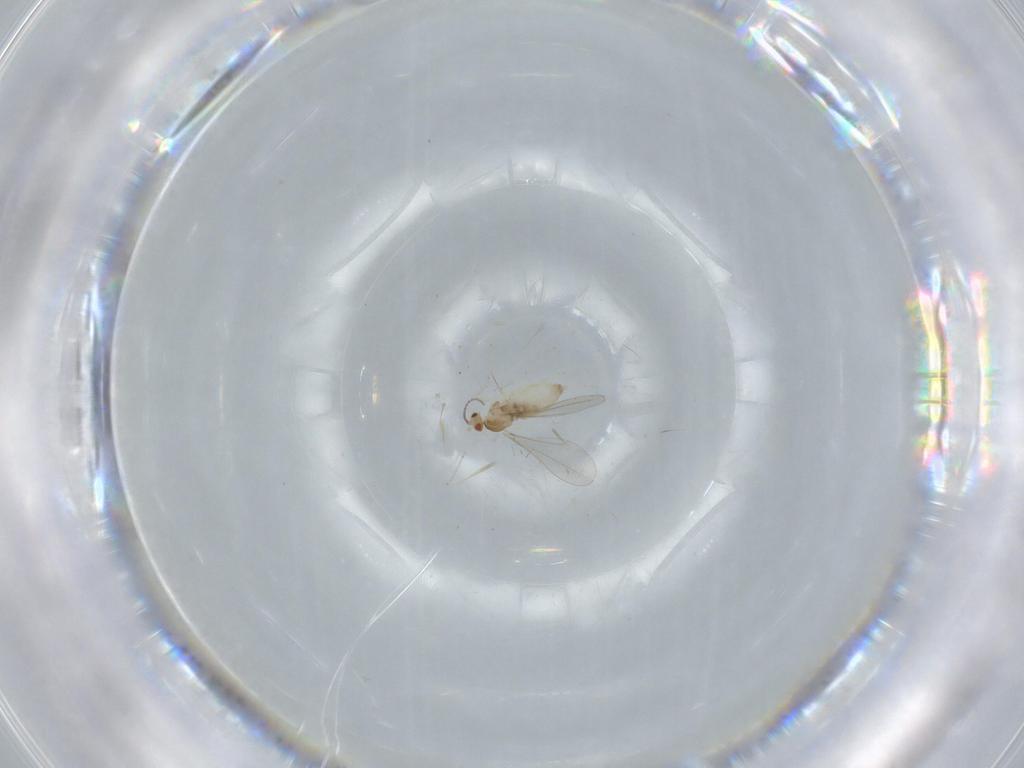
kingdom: Animalia
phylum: Arthropoda
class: Insecta
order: Diptera
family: Cecidomyiidae
